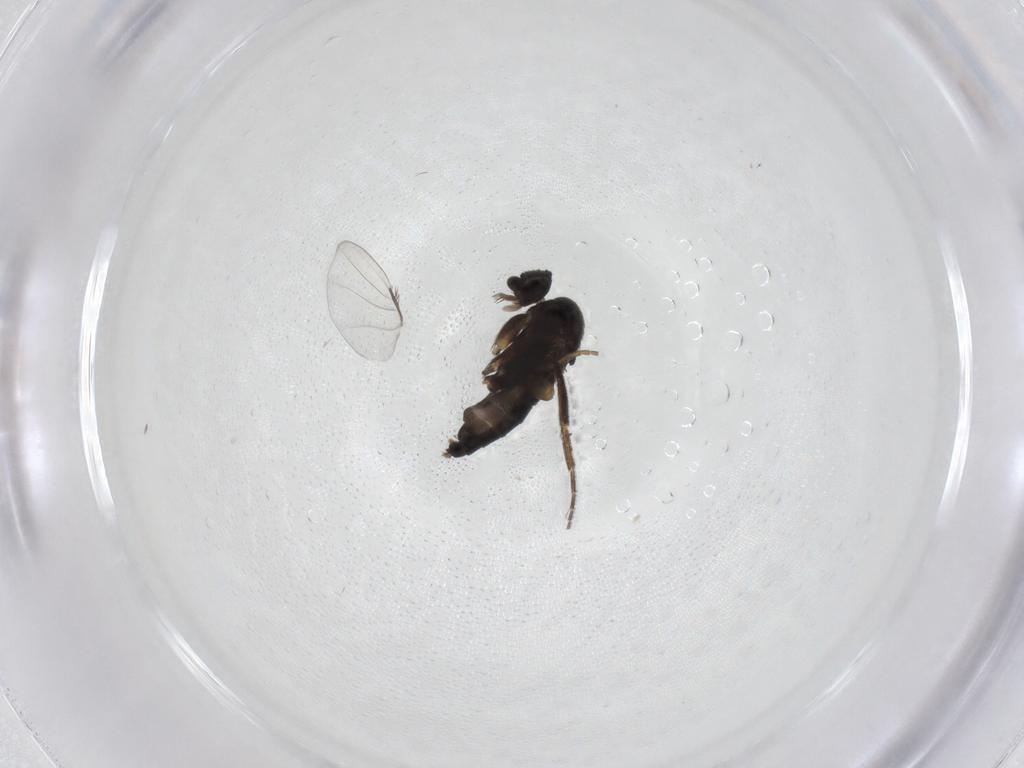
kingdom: Animalia
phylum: Arthropoda
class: Insecta
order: Diptera
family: Phoridae
